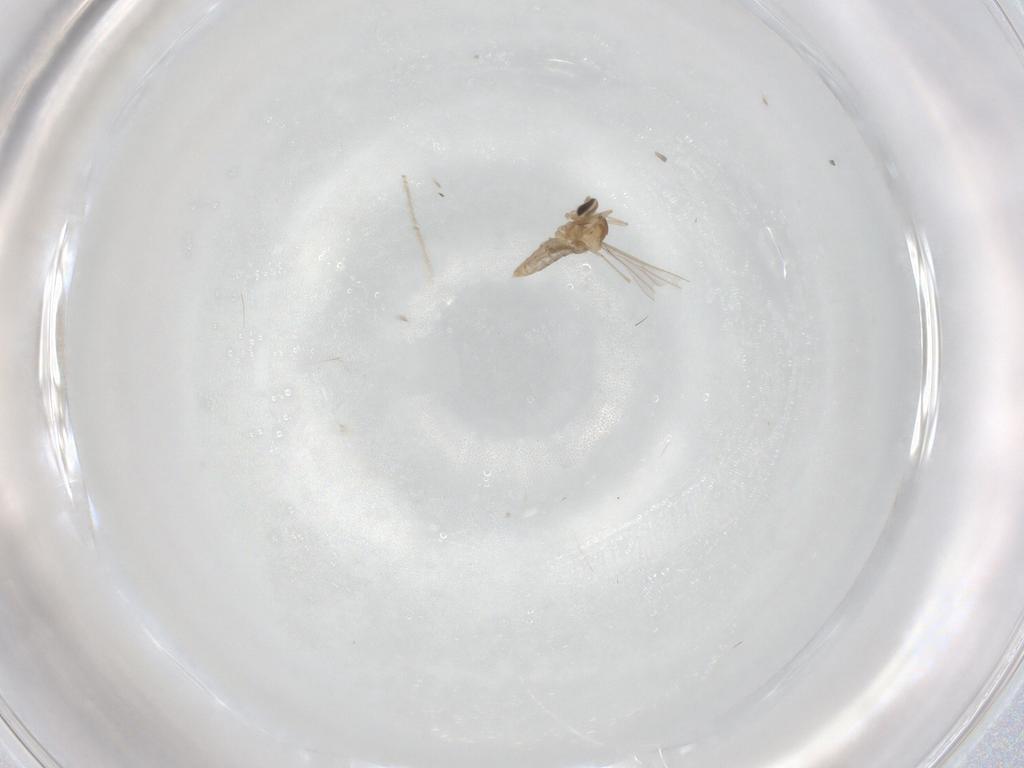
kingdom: Animalia
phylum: Arthropoda
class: Insecta
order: Diptera
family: Cecidomyiidae
